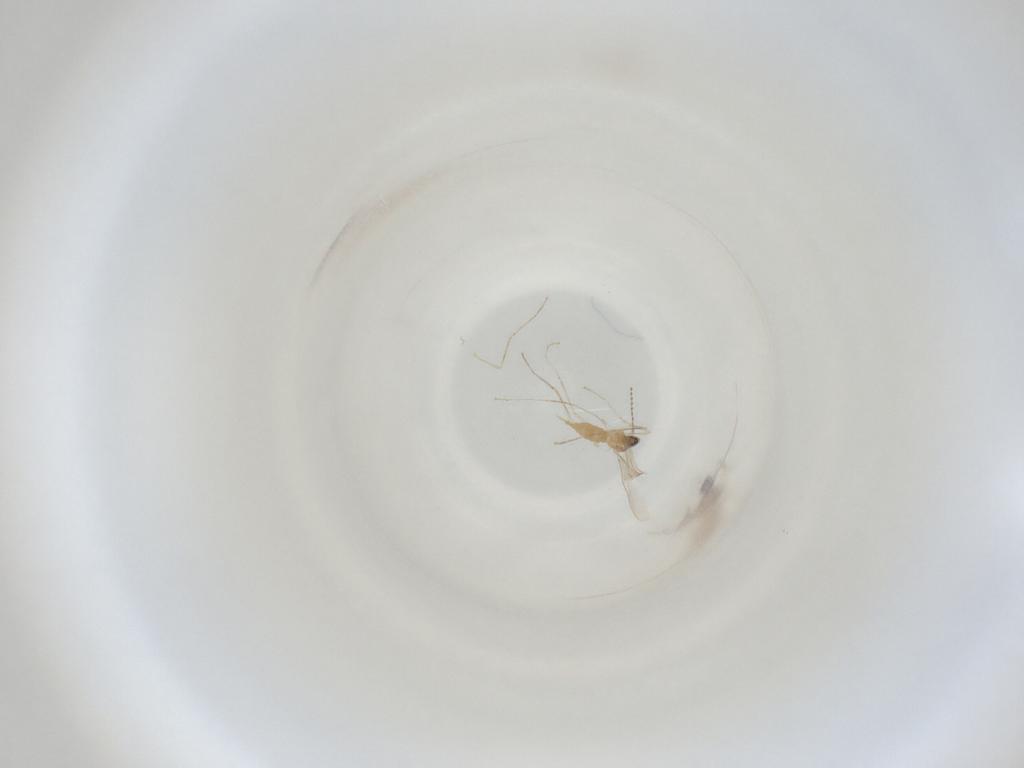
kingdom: Animalia
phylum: Arthropoda
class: Insecta
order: Diptera
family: Cecidomyiidae
